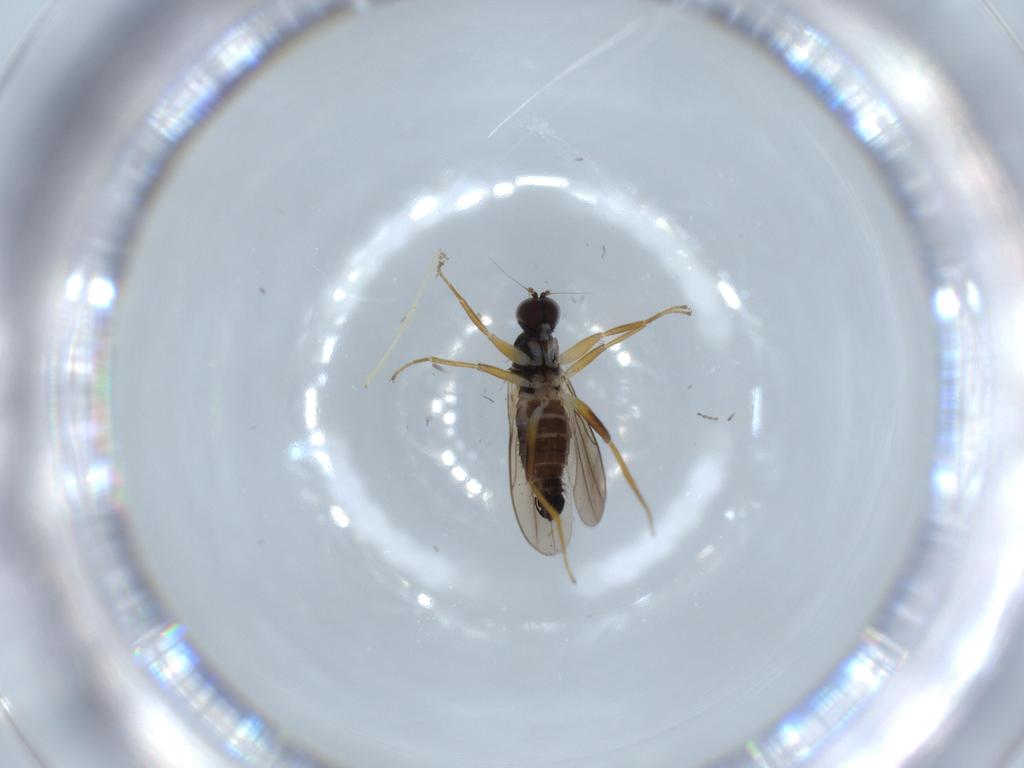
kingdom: Animalia
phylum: Arthropoda
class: Insecta
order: Diptera
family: Hybotidae
